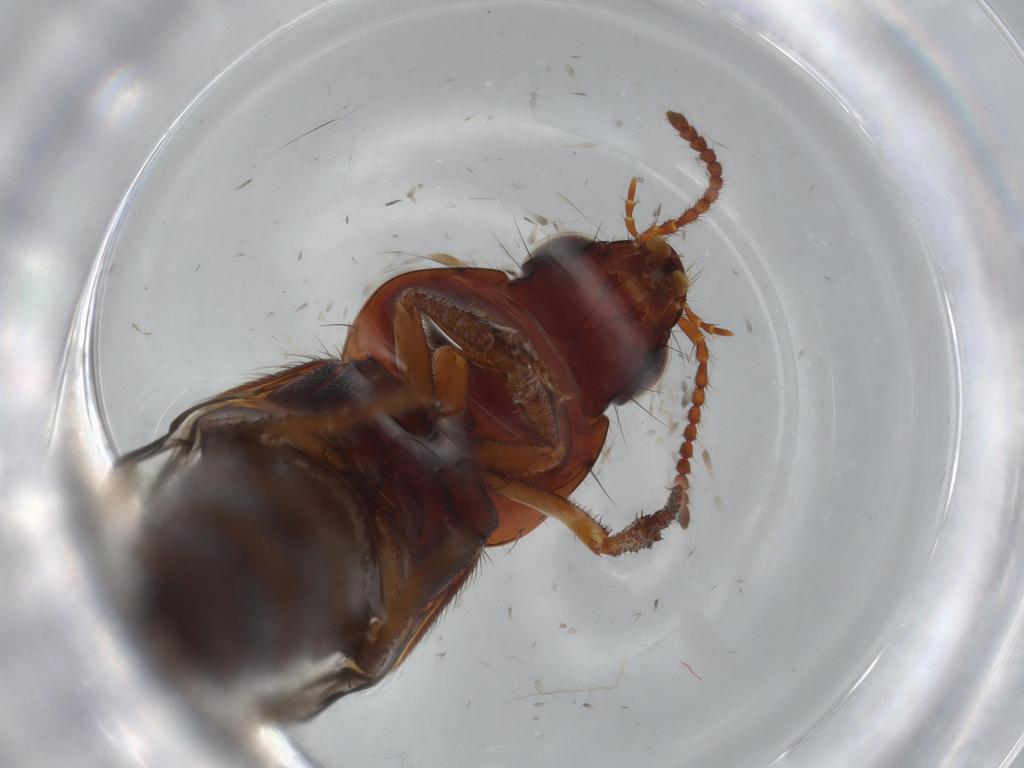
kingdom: Animalia
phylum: Arthropoda
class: Insecta
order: Coleoptera
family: Staphylinidae
